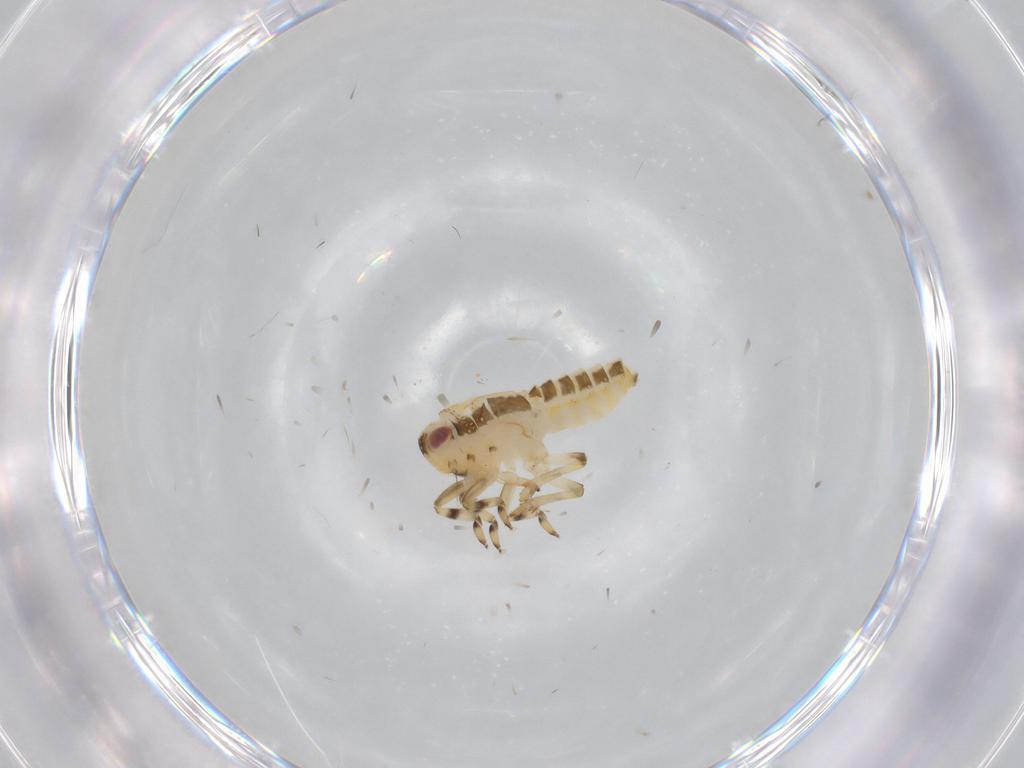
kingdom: Animalia
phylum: Arthropoda
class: Insecta
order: Hemiptera
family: Issidae
